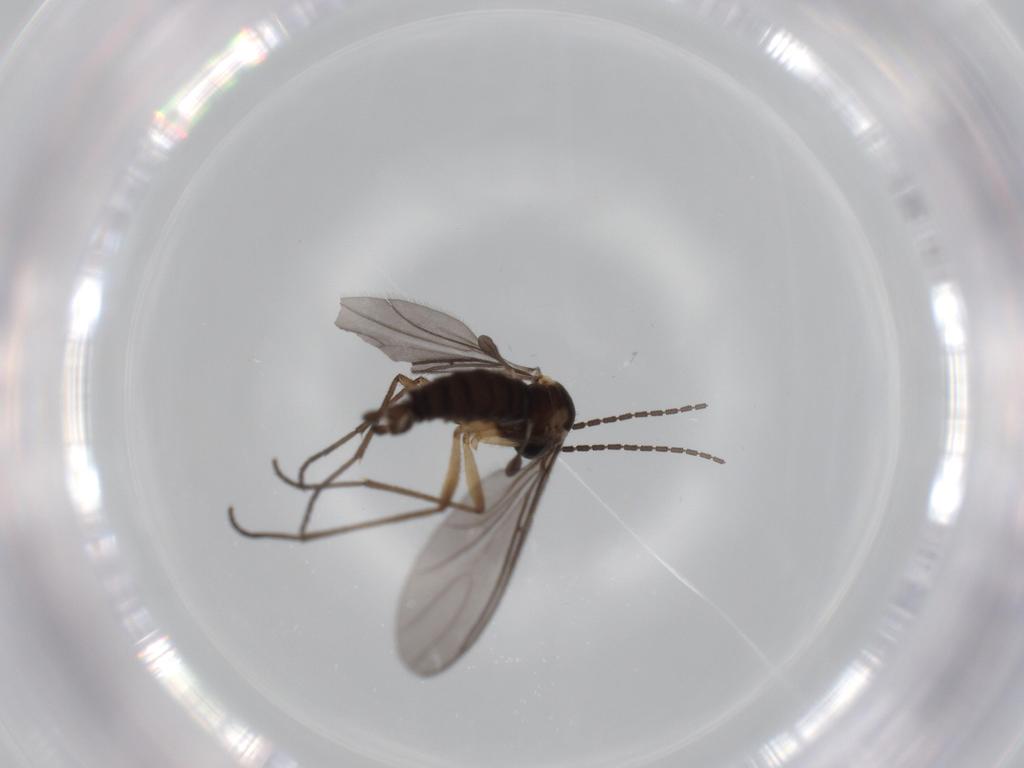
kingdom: Animalia
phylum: Arthropoda
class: Insecta
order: Diptera
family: Sciaridae
